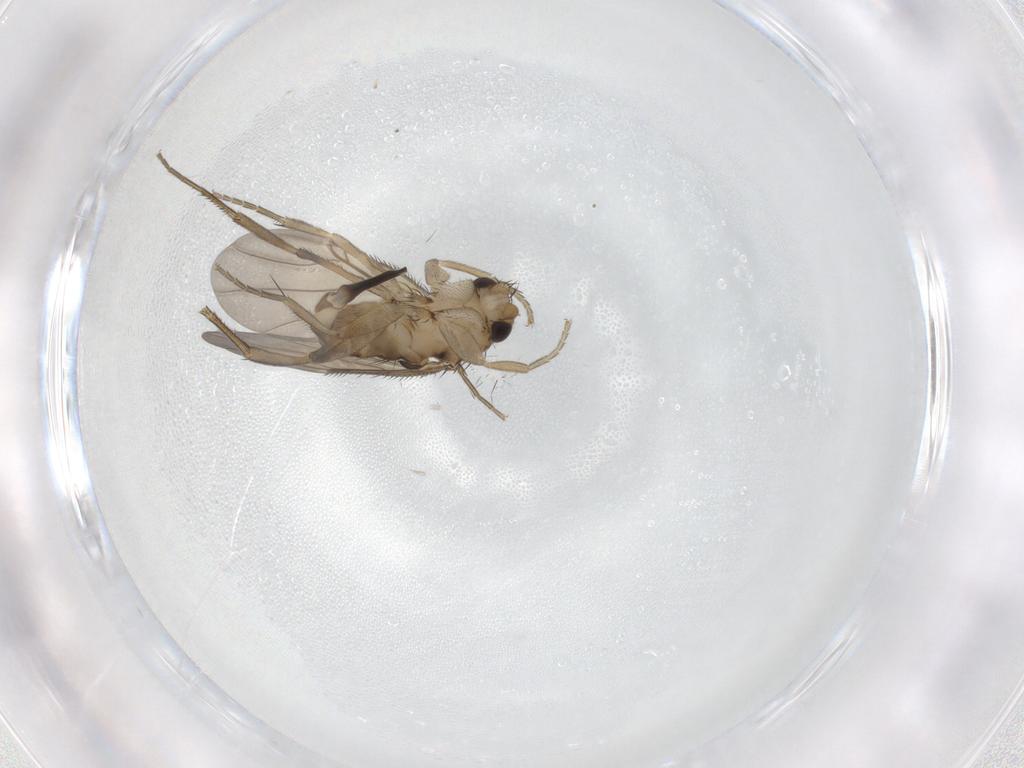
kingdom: Animalia
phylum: Arthropoda
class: Insecta
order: Diptera
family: Phoridae
